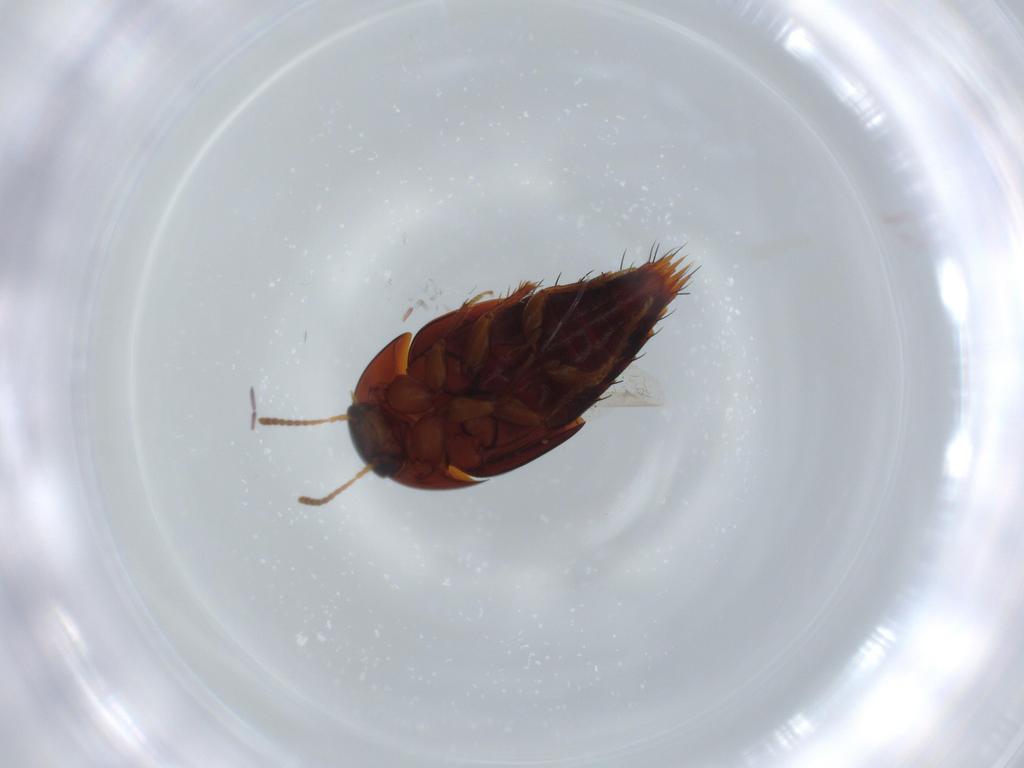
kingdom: Animalia
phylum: Arthropoda
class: Insecta
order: Coleoptera
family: Staphylinidae
